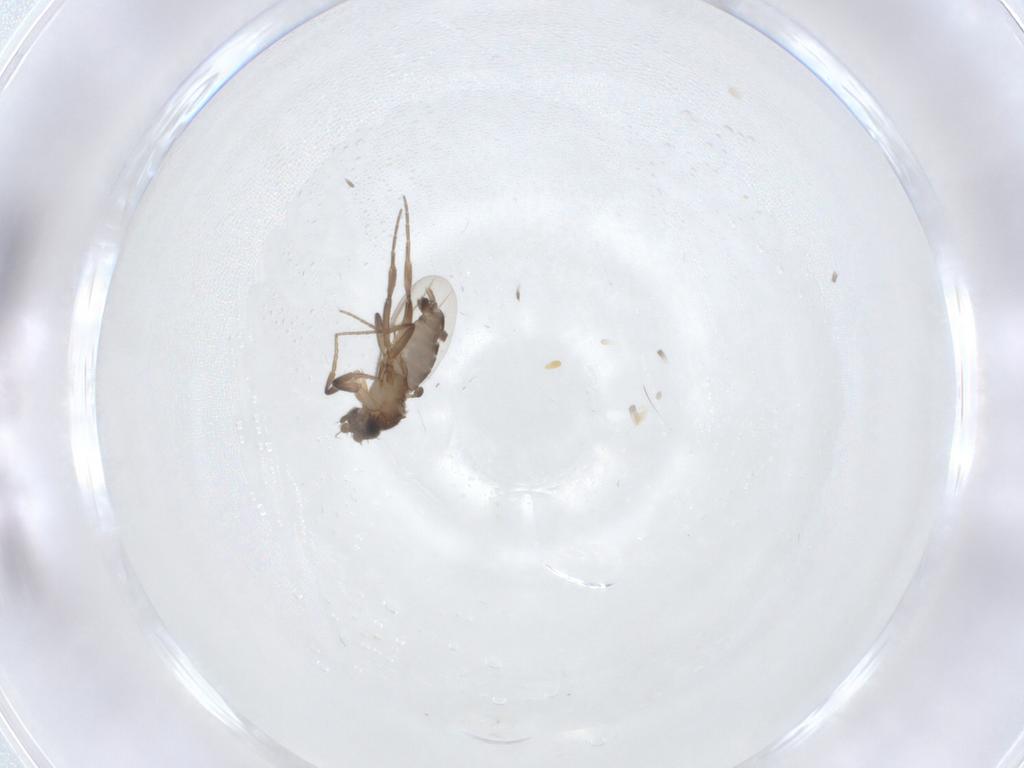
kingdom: Animalia
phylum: Arthropoda
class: Insecta
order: Diptera
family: Phoridae
